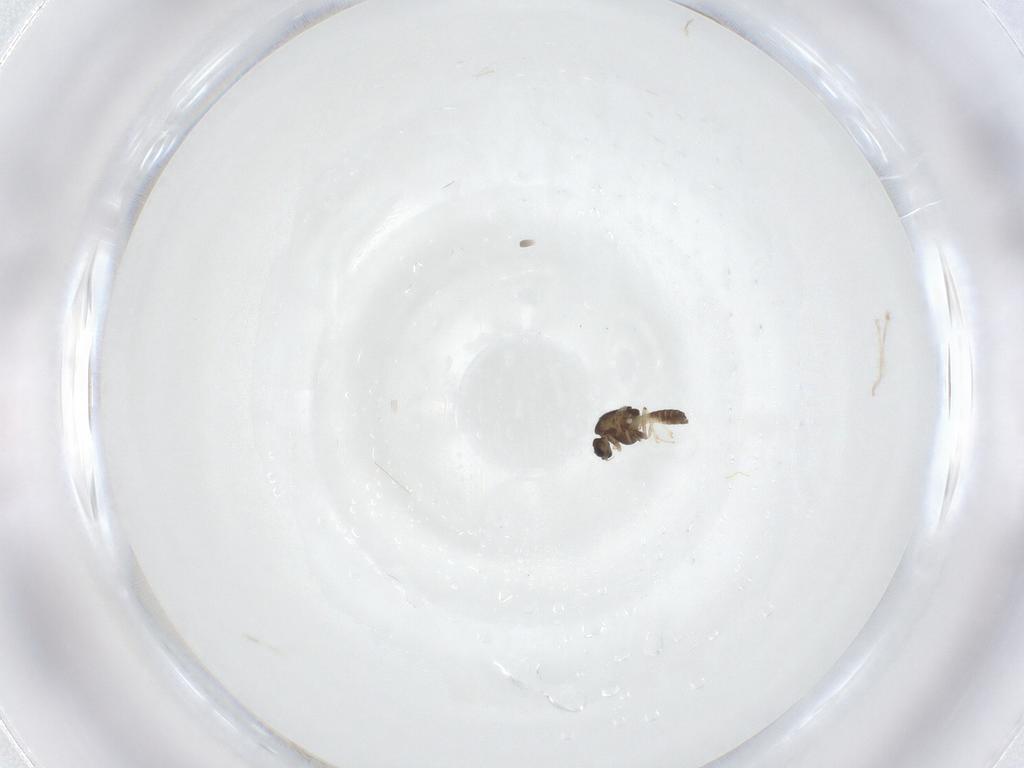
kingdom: Animalia
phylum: Arthropoda
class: Insecta
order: Diptera
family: Chironomidae
